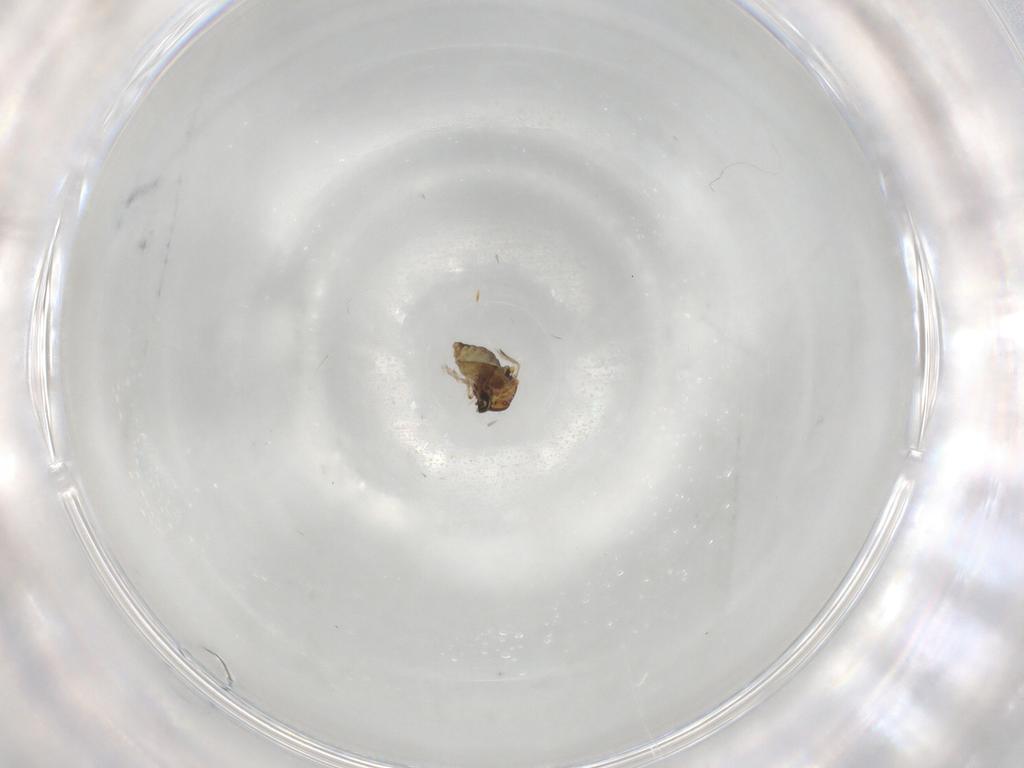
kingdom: Animalia
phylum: Arthropoda
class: Insecta
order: Diptera
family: Ceratopogonidae
